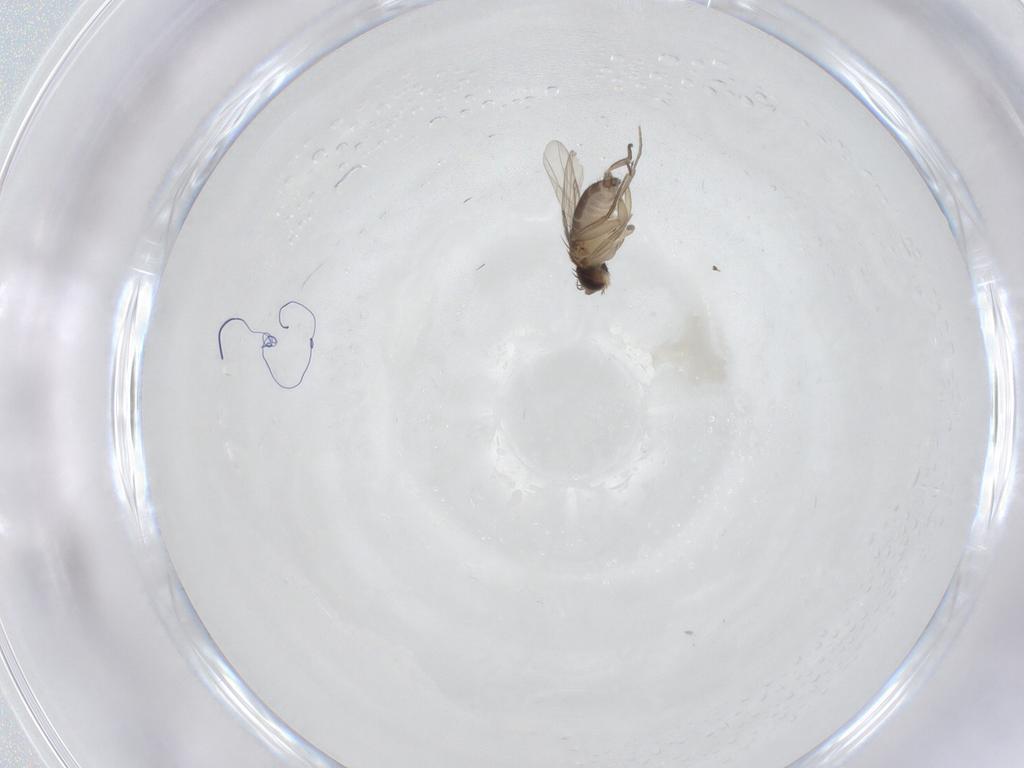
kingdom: Animalia
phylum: Arthropoda
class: Insecta
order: Diptera
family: Phoridae
